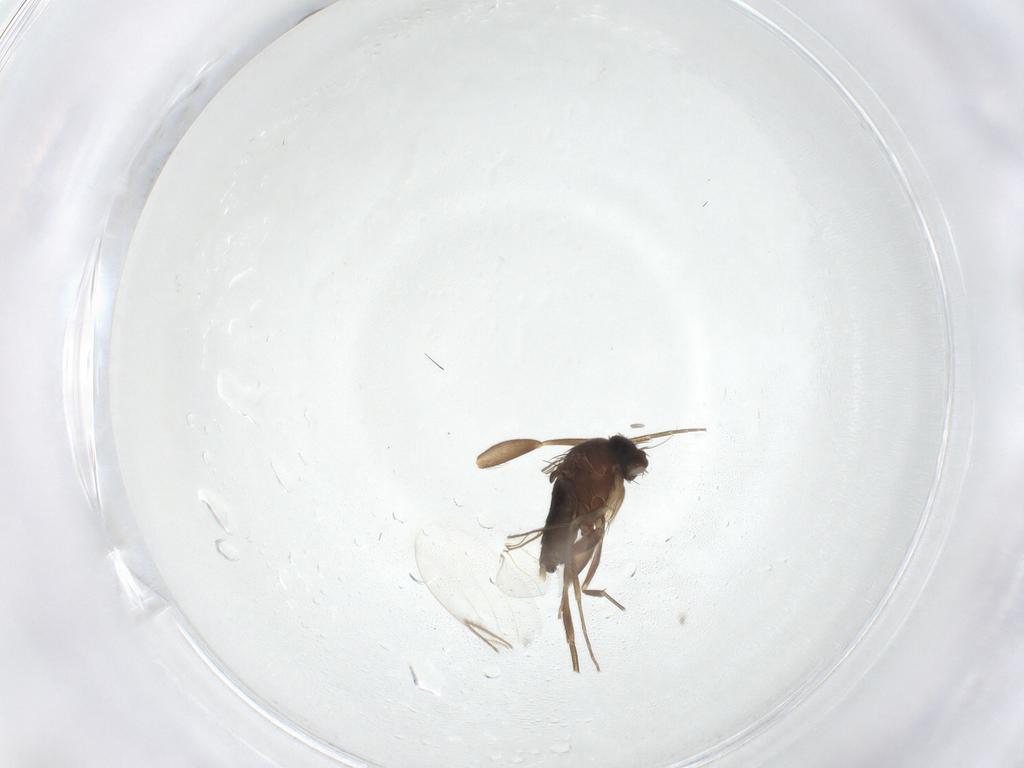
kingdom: Animalia
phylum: Arthropoda
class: Insecta
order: Diptera
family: Phoridae
